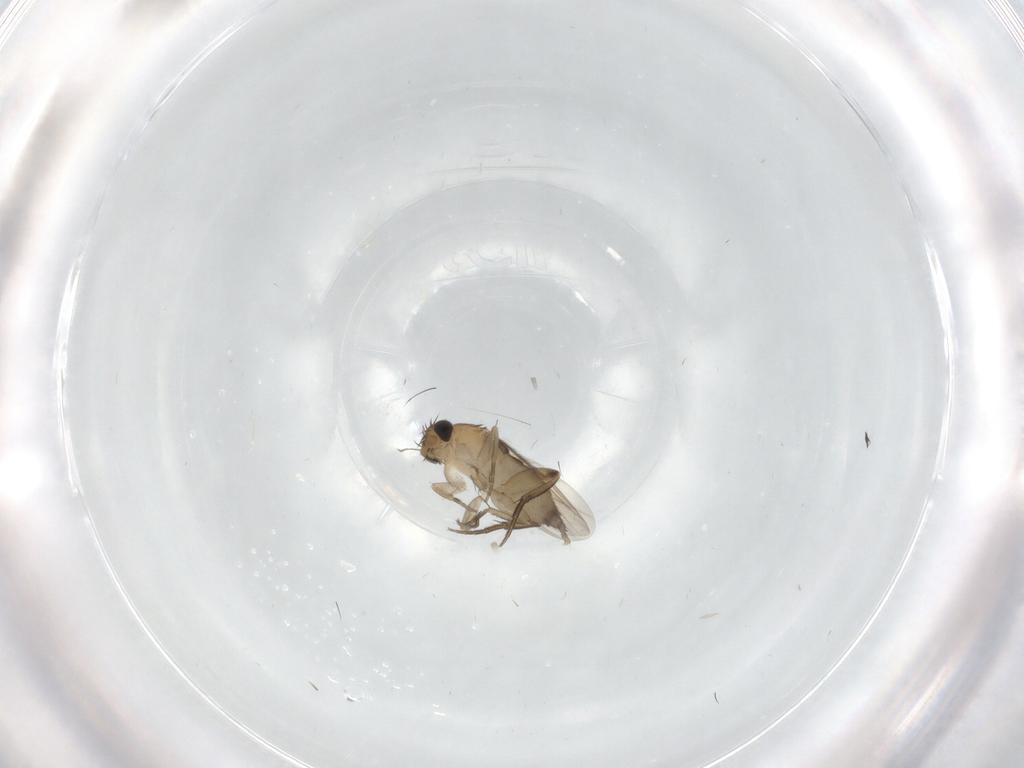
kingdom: Animalia
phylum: Arthropoda
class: Insecta
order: Diptera
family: Phoridae
